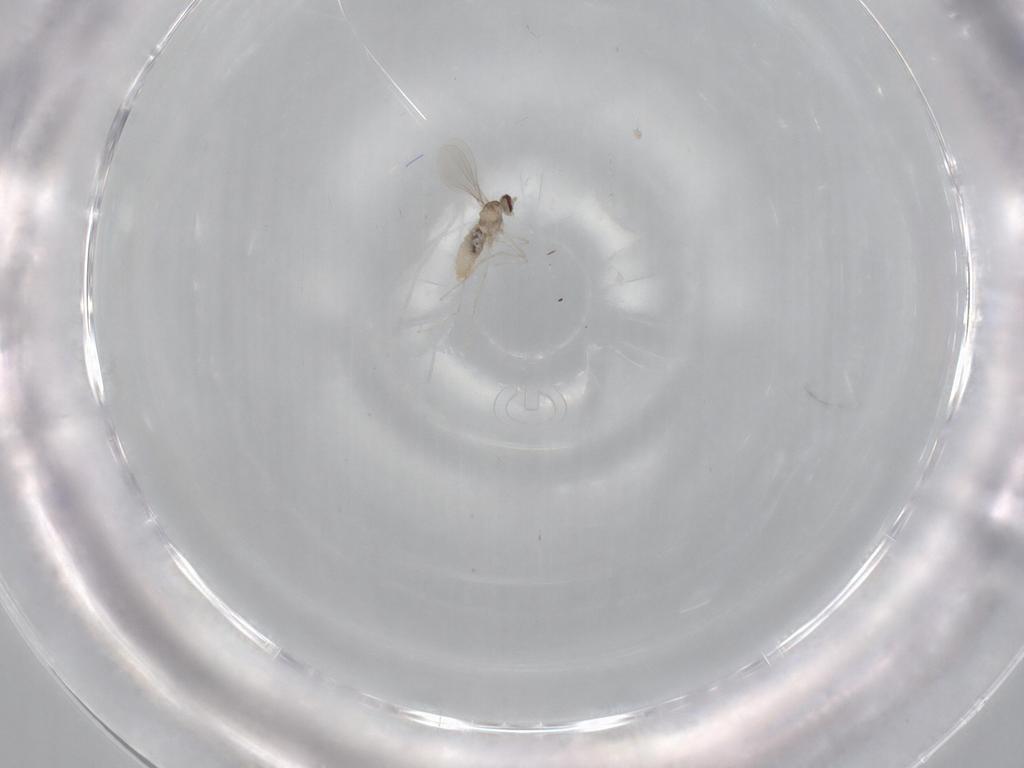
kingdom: Animalia
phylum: Arthropoda
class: Insecta
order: Diptera
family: Cecidomyiidae
